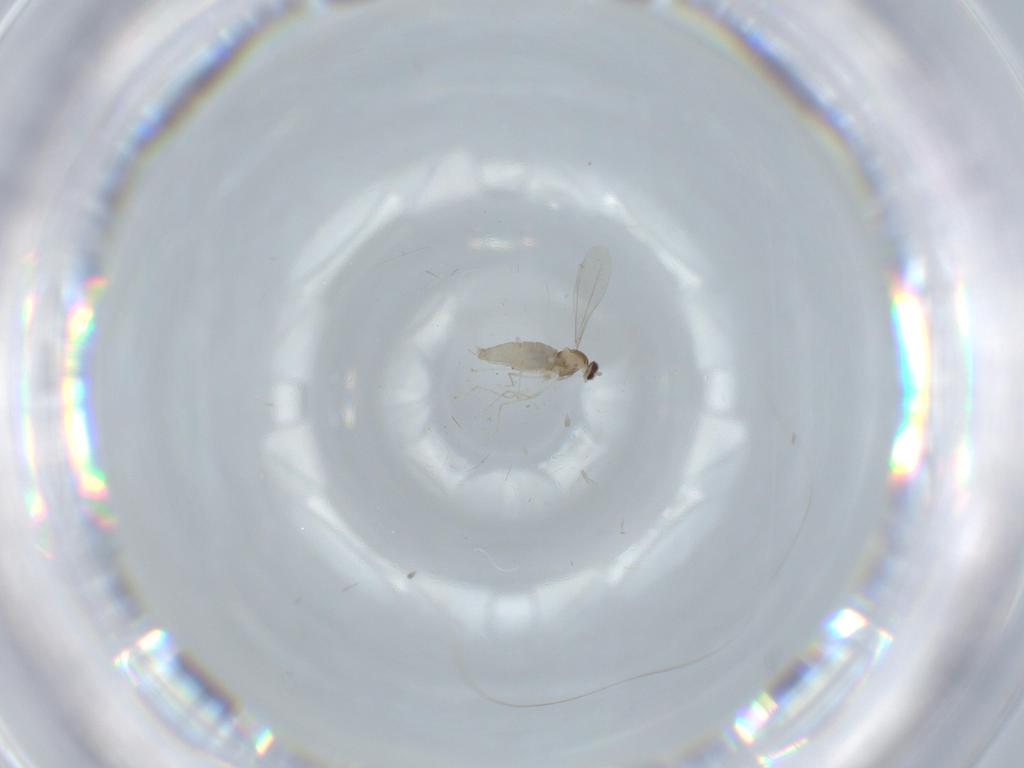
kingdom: Animalia
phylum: Arthropoda
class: Insecta
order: Diptera
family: Cecidomyiidae
